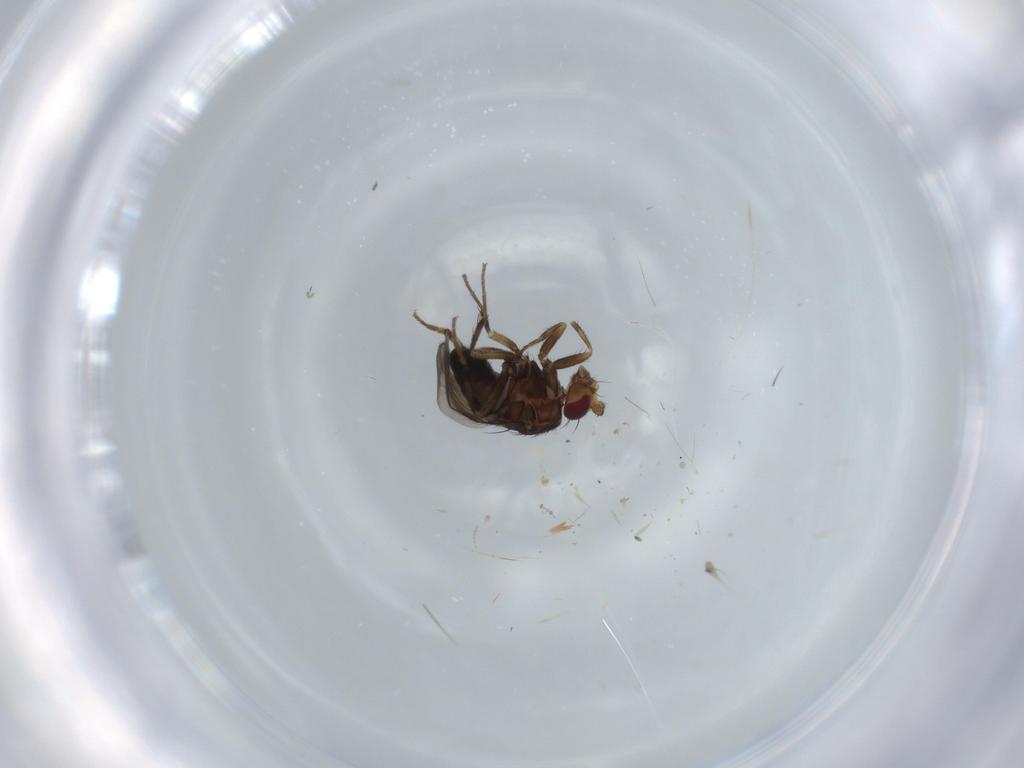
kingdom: Animalia
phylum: Arthropoda
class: Insecta
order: Diptera
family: Sphaeroceridae
